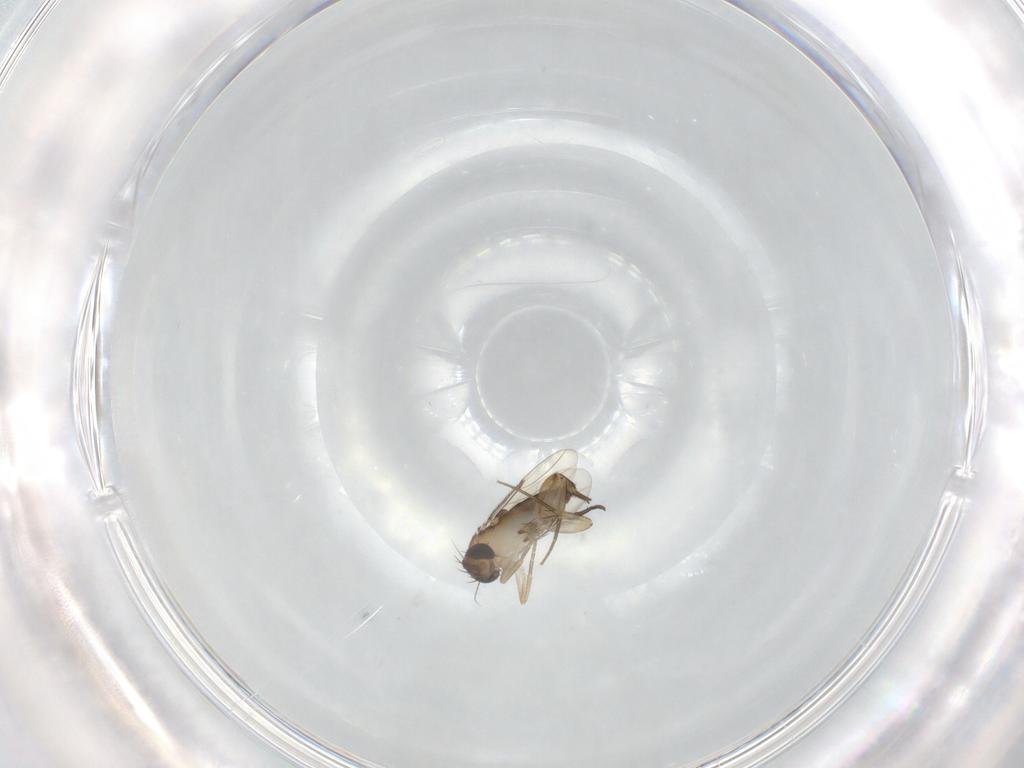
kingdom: Animalia
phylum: Arthropoda
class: Insecta
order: Diptera
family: Phoridae
